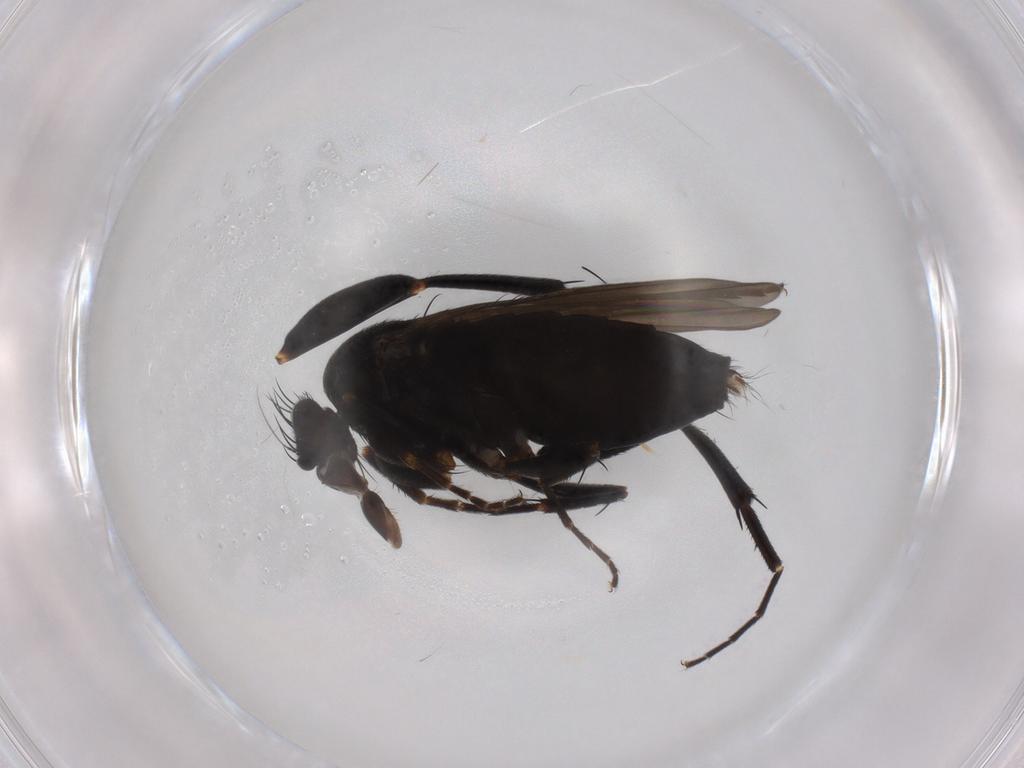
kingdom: Animalia
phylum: Arthropoda
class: Insecta
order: Diptera
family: Phoridae
